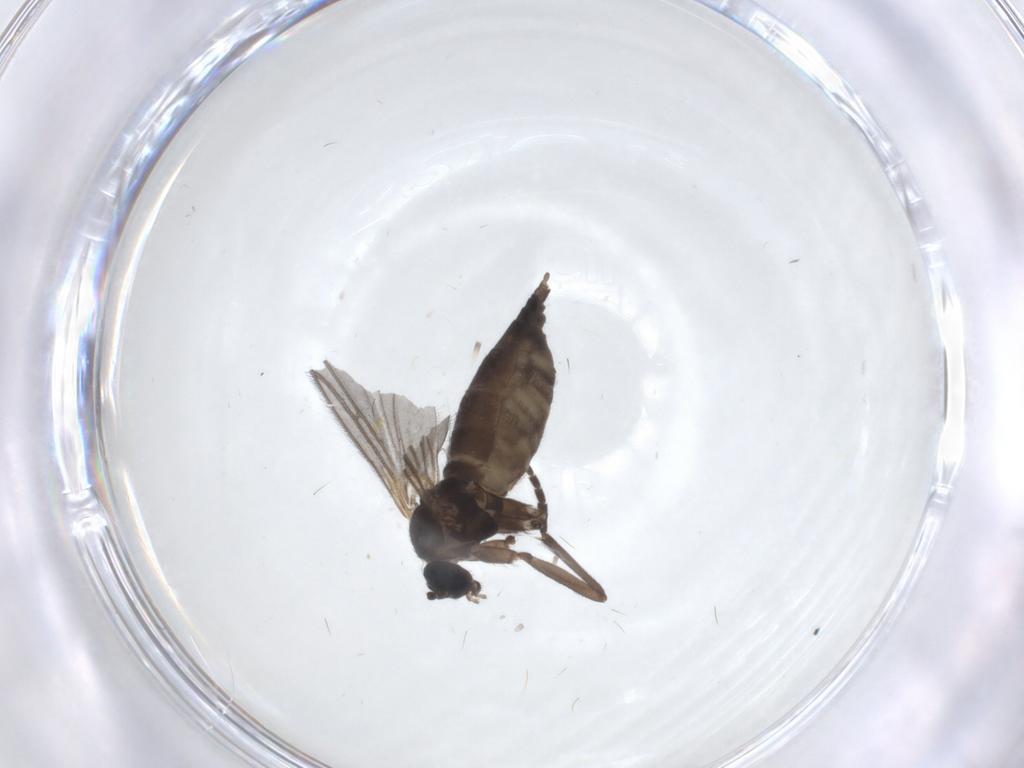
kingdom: Animalia
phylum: Arthropoda
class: Insecta
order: Diptera
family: Sciaridae
